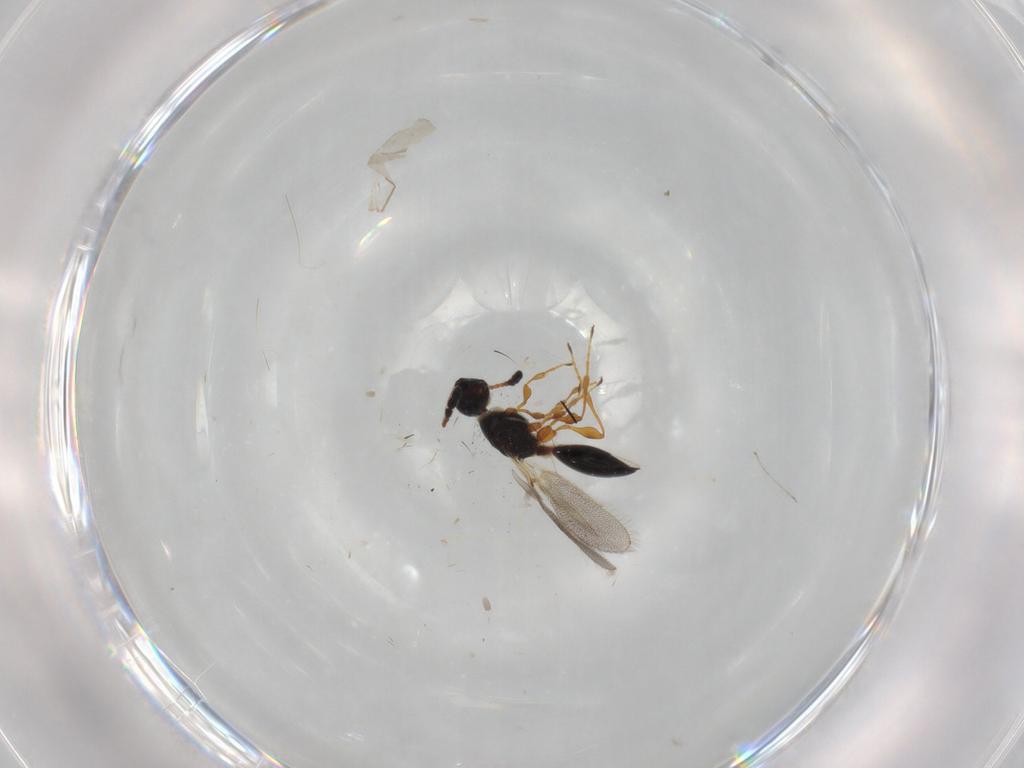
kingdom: Animalia
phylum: Arthropoda
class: Insecta
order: Hymenoptera
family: Diapriidae
